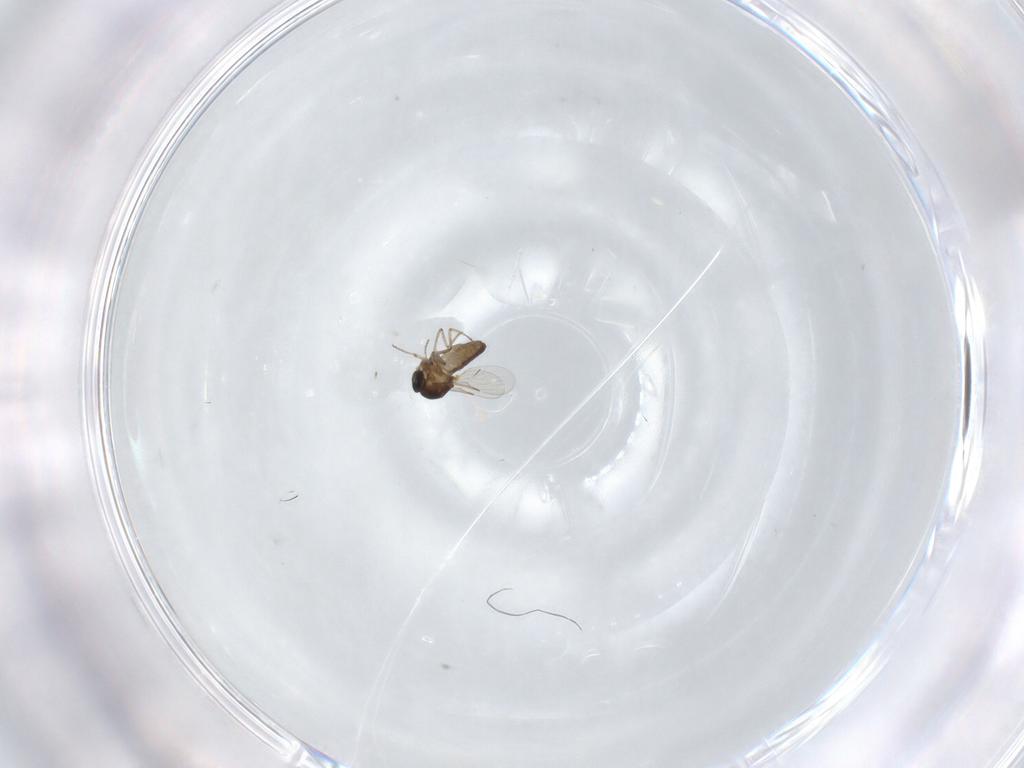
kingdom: Animalia
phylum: Arthropoda
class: Insecta
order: Diptera
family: Ceratopogonidae
